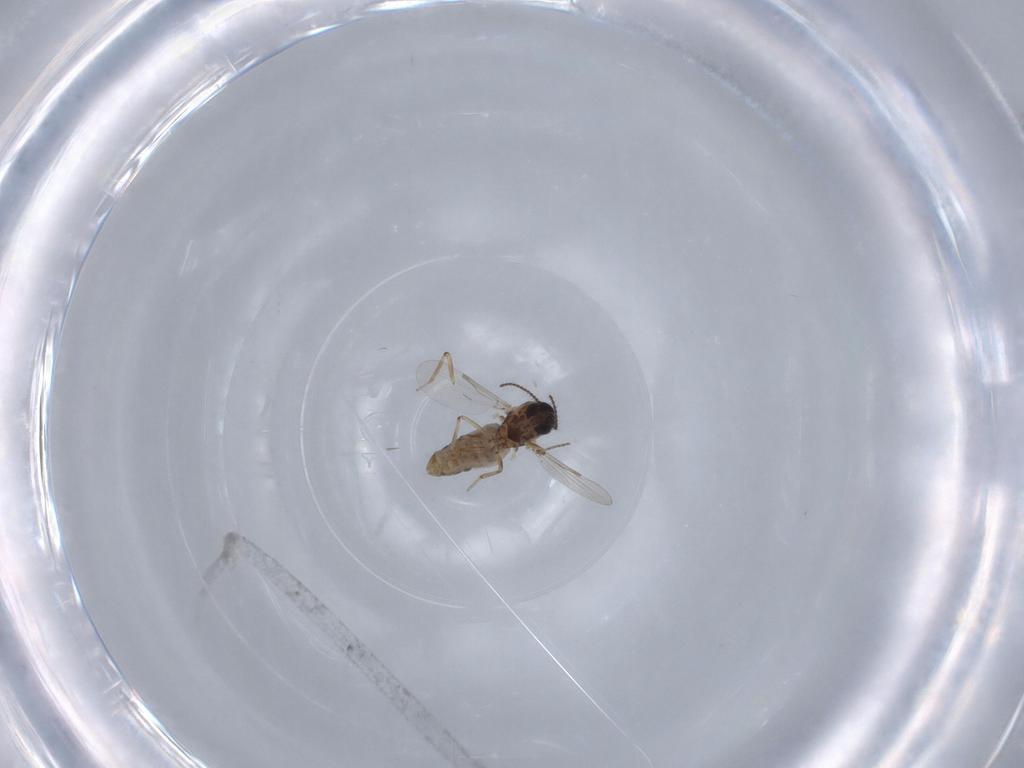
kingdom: Animalia
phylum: Arthropoda
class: Insecta
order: Diptera
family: Ceratopogonidae
